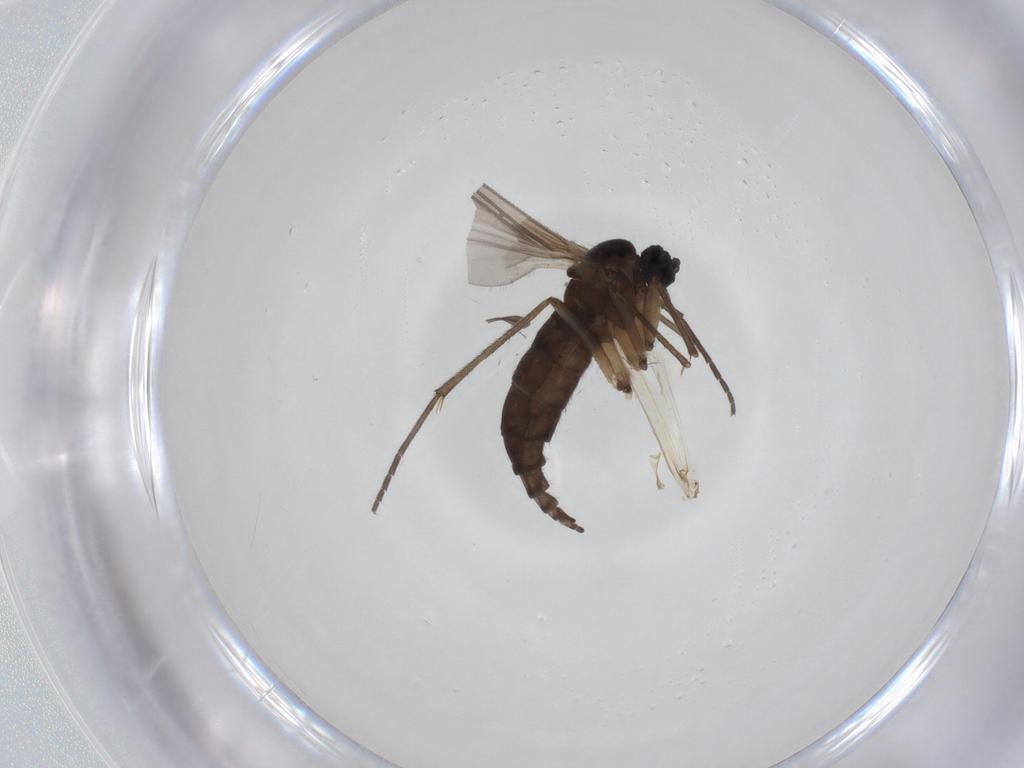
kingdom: Animalia
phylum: Arthropoda
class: Insecta
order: Diptera
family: Sciaridae
